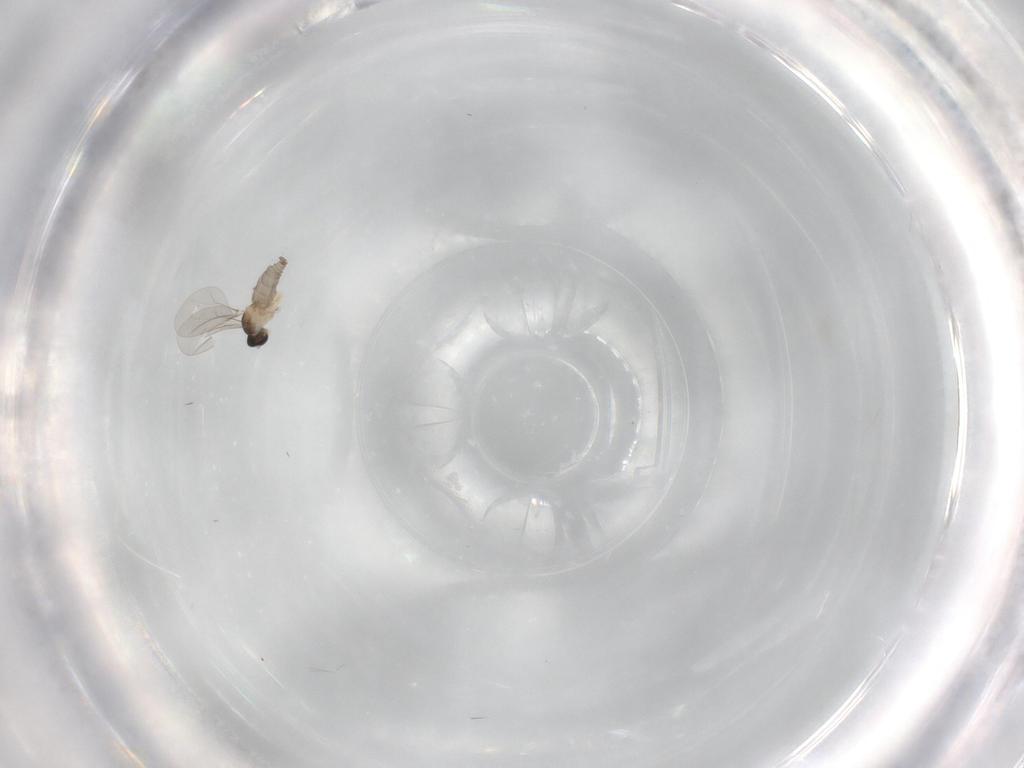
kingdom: Animalia
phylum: Arthropoda
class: Insecta
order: Diptera
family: Cecidomyiidae
